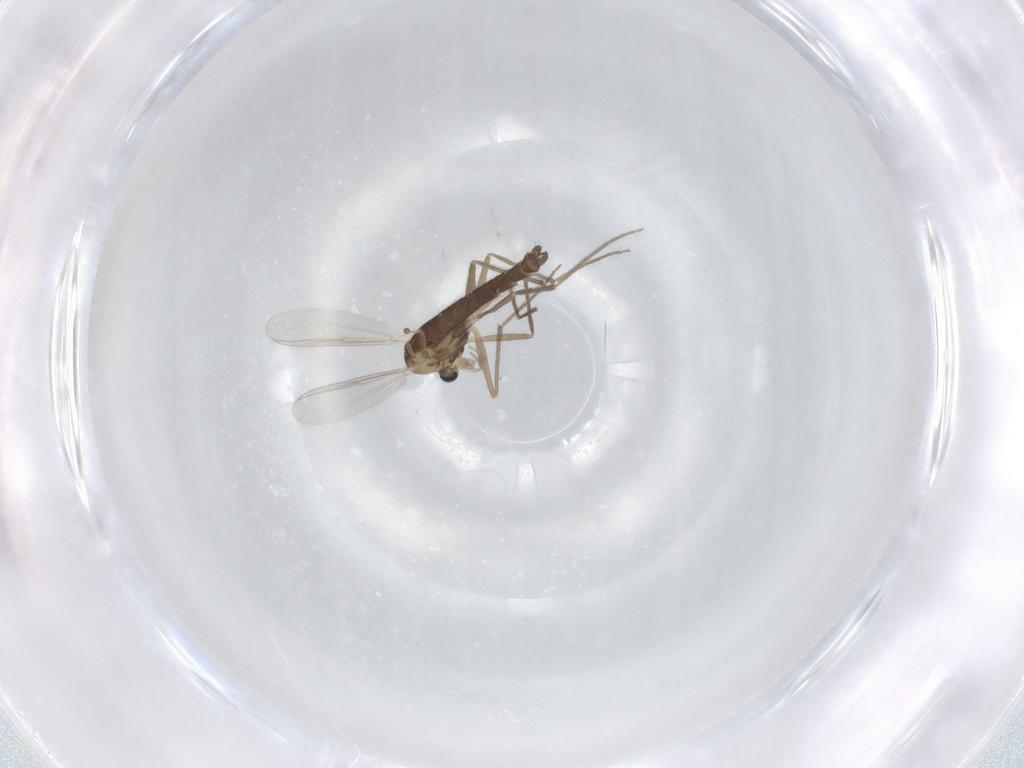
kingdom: Animalia
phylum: Arthropoda
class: Insecta
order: Diptera
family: Chironomidae
